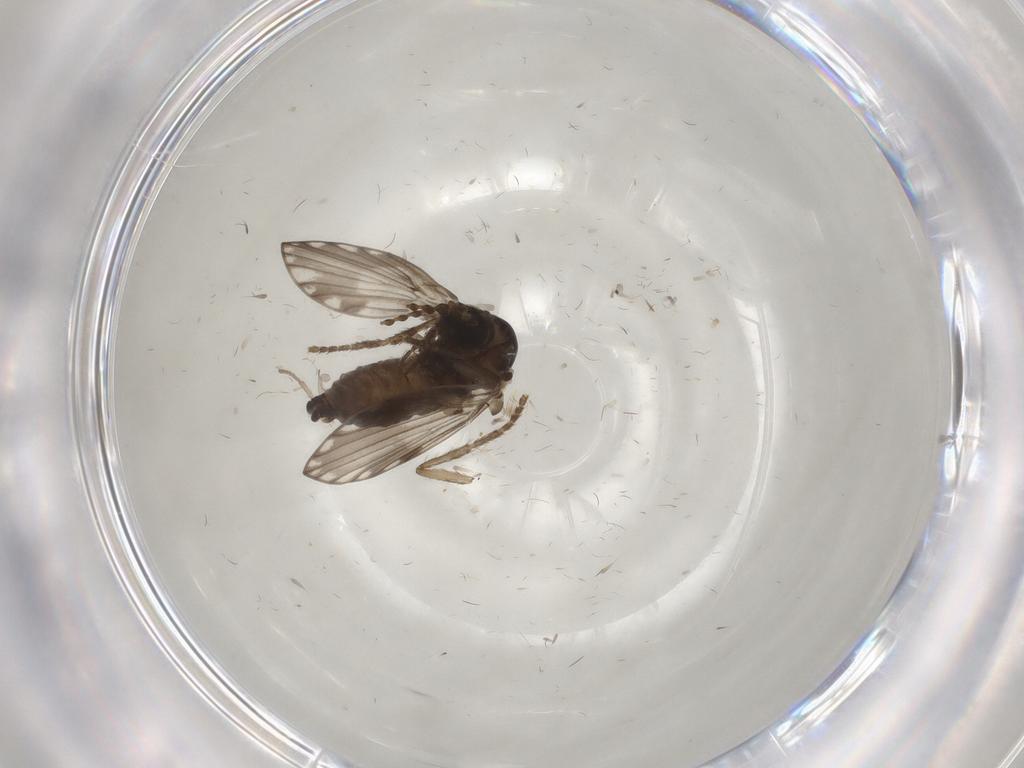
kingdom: Animalia
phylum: Arthropoda
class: Insecta
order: Diptera
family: Psychodidae
